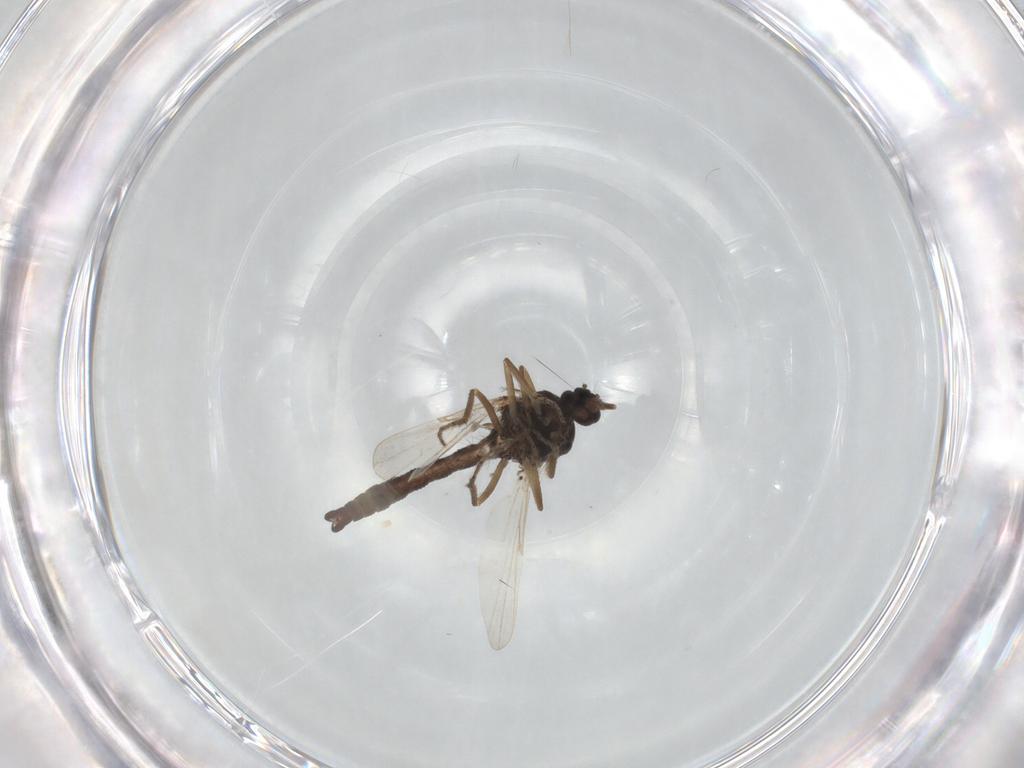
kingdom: Animalia
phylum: Arthropoda
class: Insecta
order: Diptera
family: Ceratopogonidae
